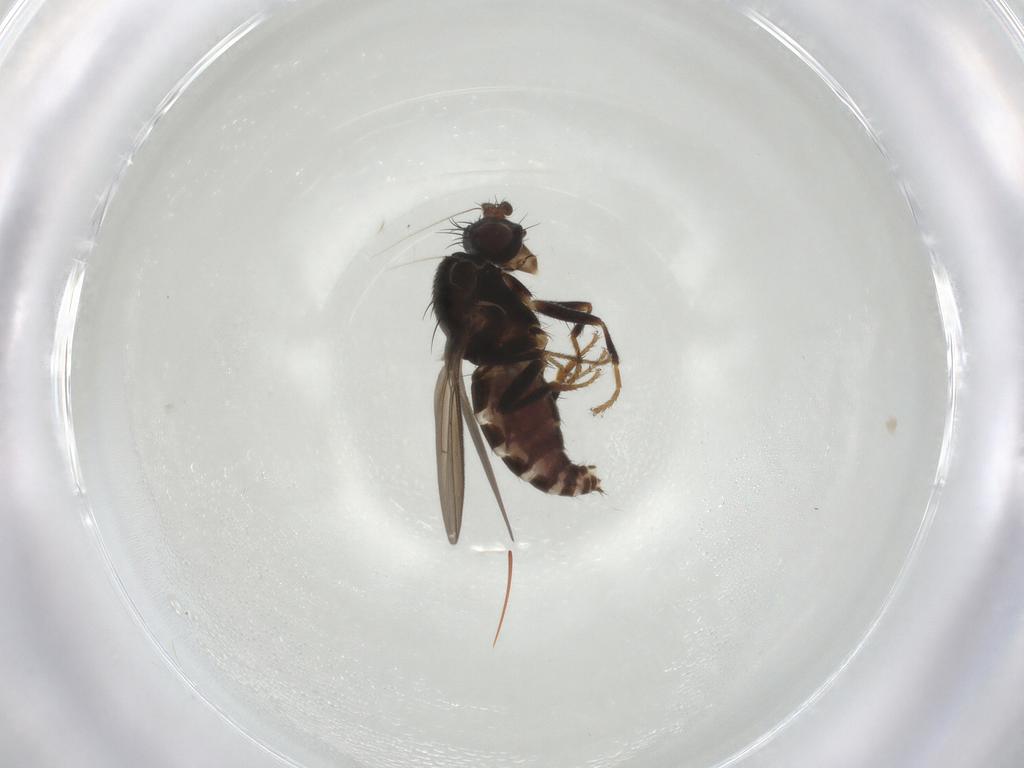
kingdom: Animalia
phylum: Arthropoda
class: Insecta
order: Diptera
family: Sphaeroceridae
